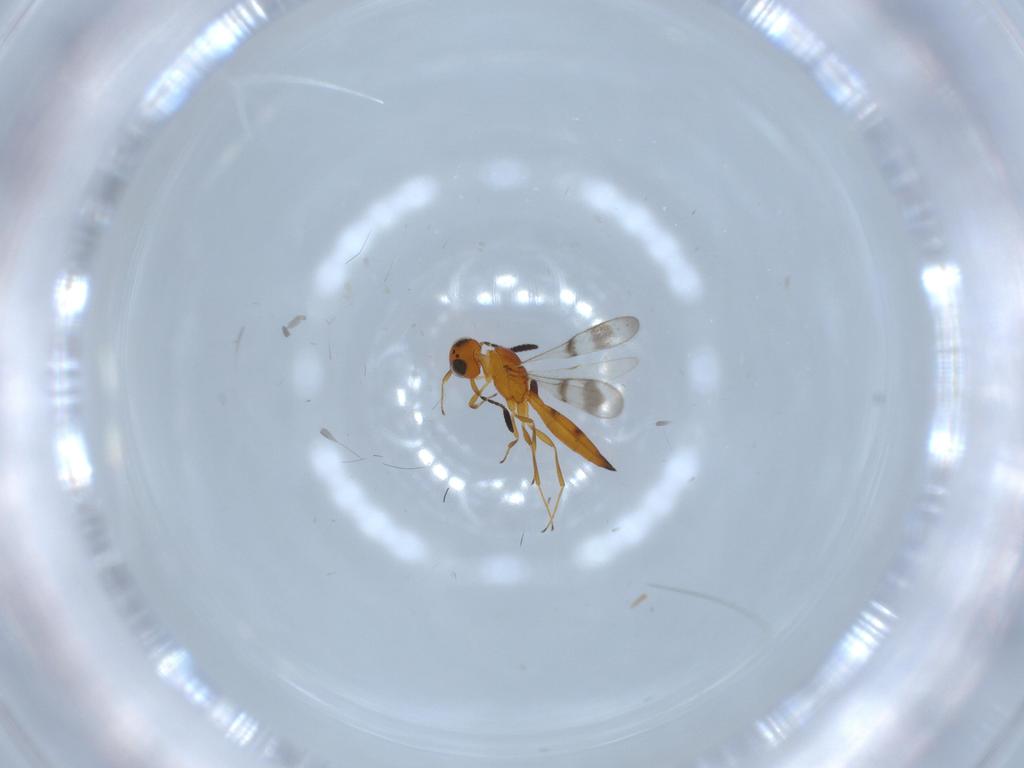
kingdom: Animalia
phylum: Arthropoda
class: Insecta
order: Hymenoptera
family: Scelionidae
